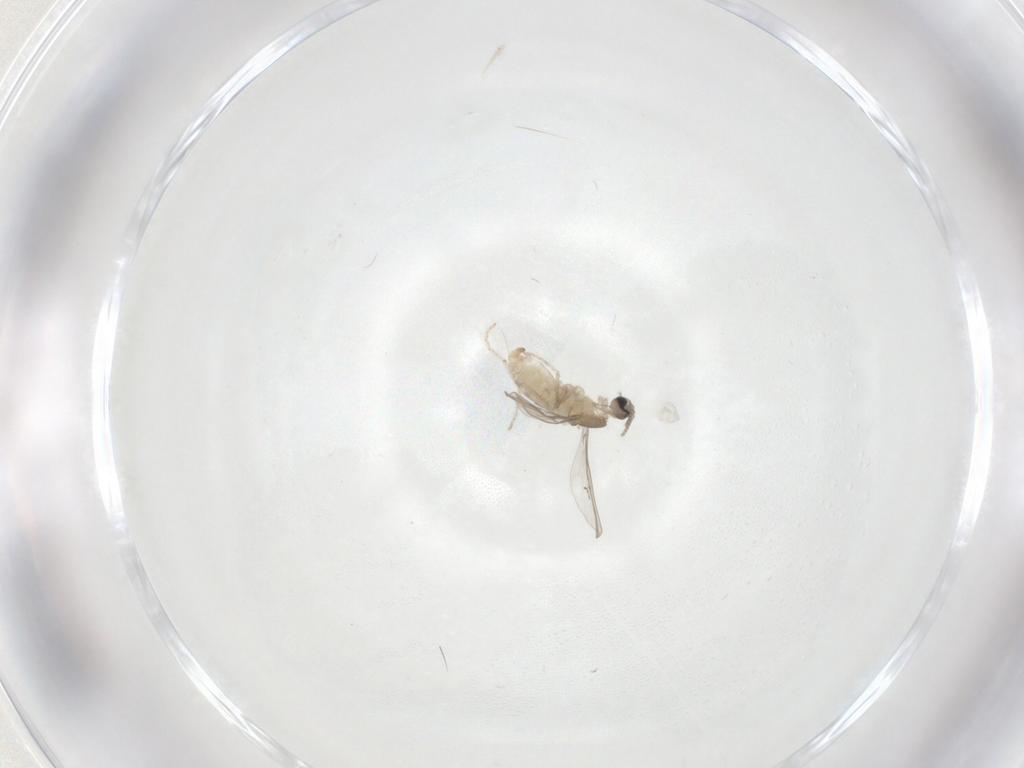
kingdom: Animalia
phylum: Arthropoda
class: Insecta
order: Diptera
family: Cecidomyiidae
